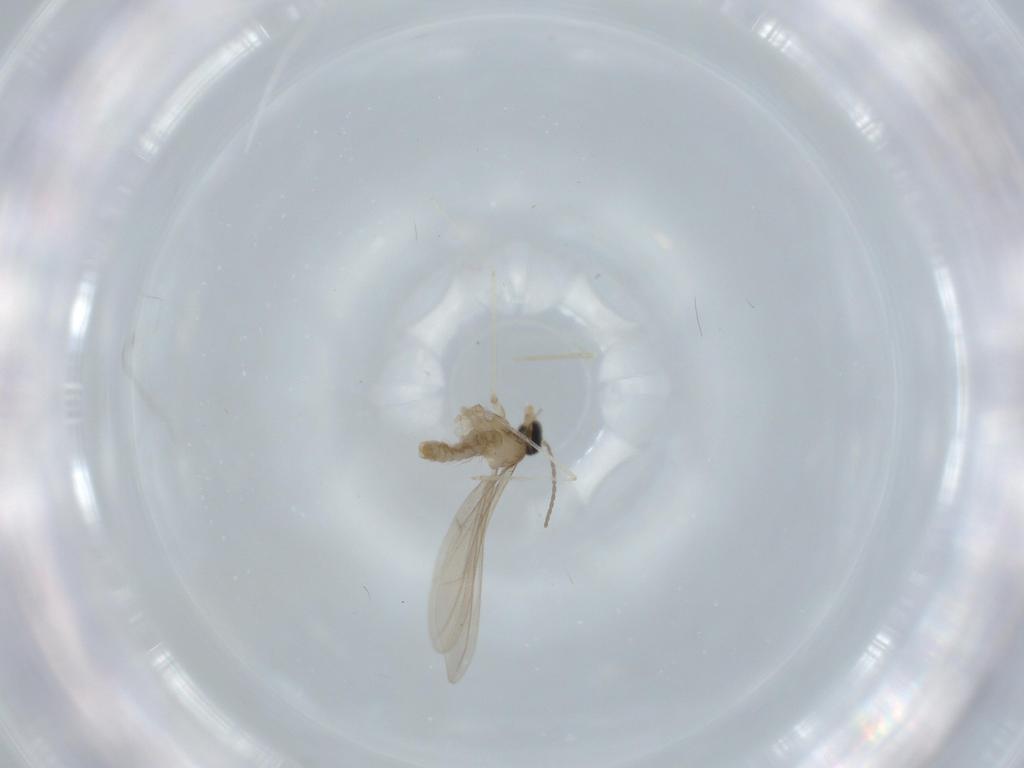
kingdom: Animalia
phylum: Arthropoda
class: Insecta
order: Diptera
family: Cecidomyiidae
